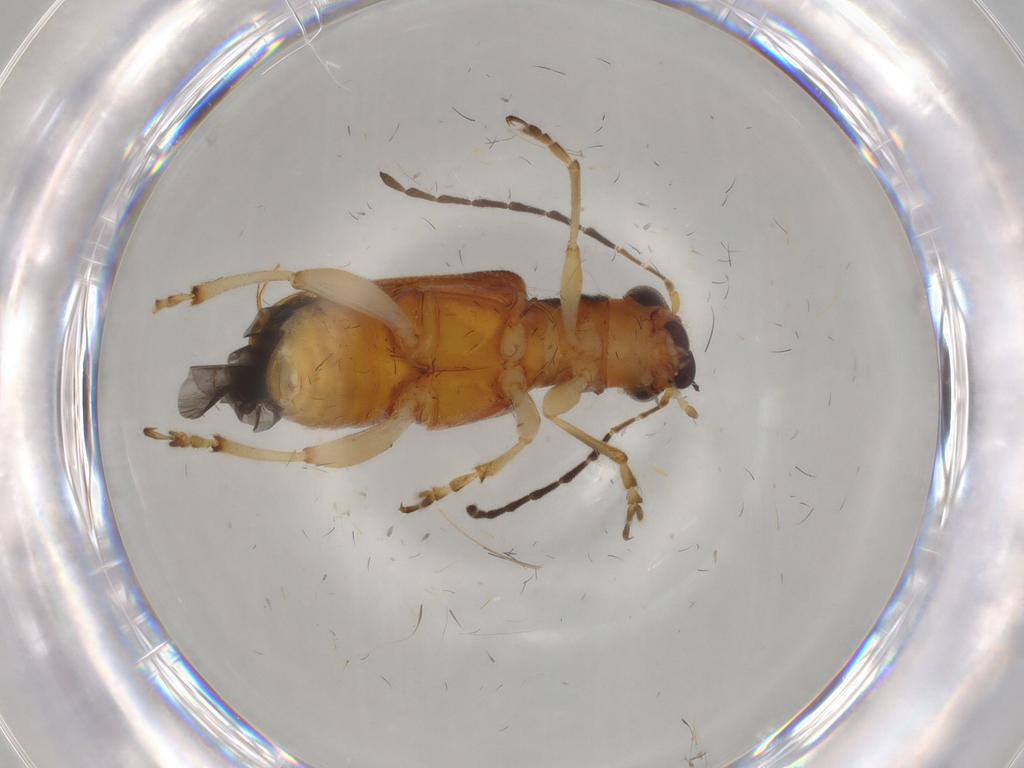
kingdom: Animalia
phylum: Arthropoda
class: Insecta
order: Coleoptera
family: Chrysomelidae
